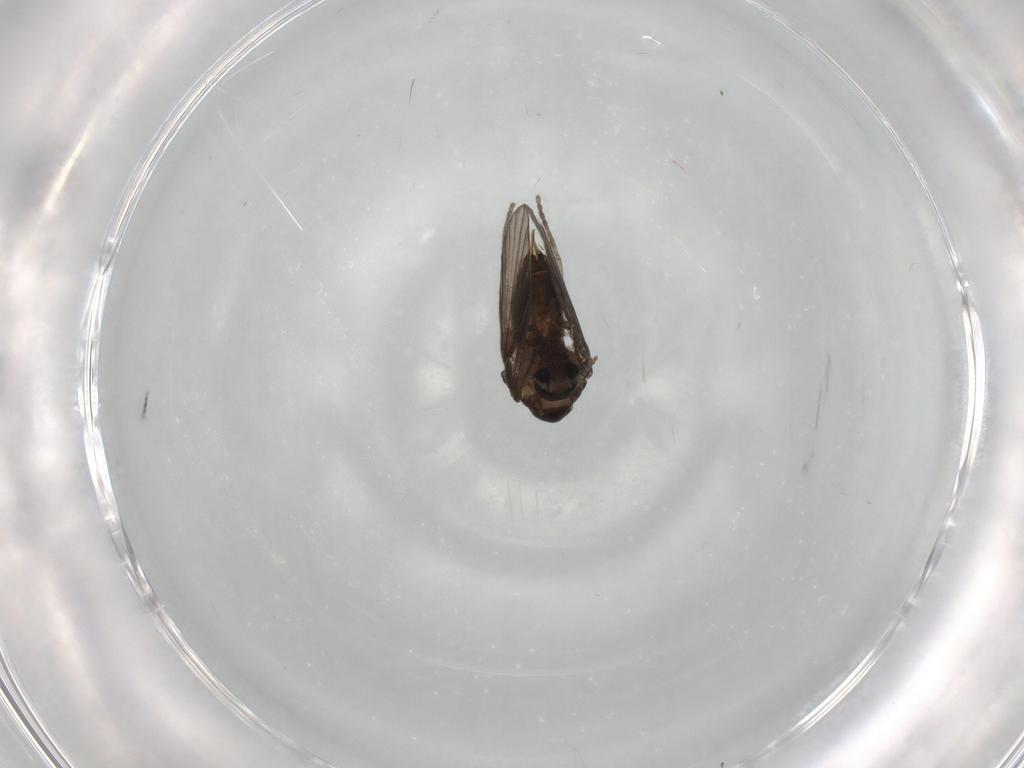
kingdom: Animalia
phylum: Arthropoda
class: Insecta
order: Diptera
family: Psychodidae
